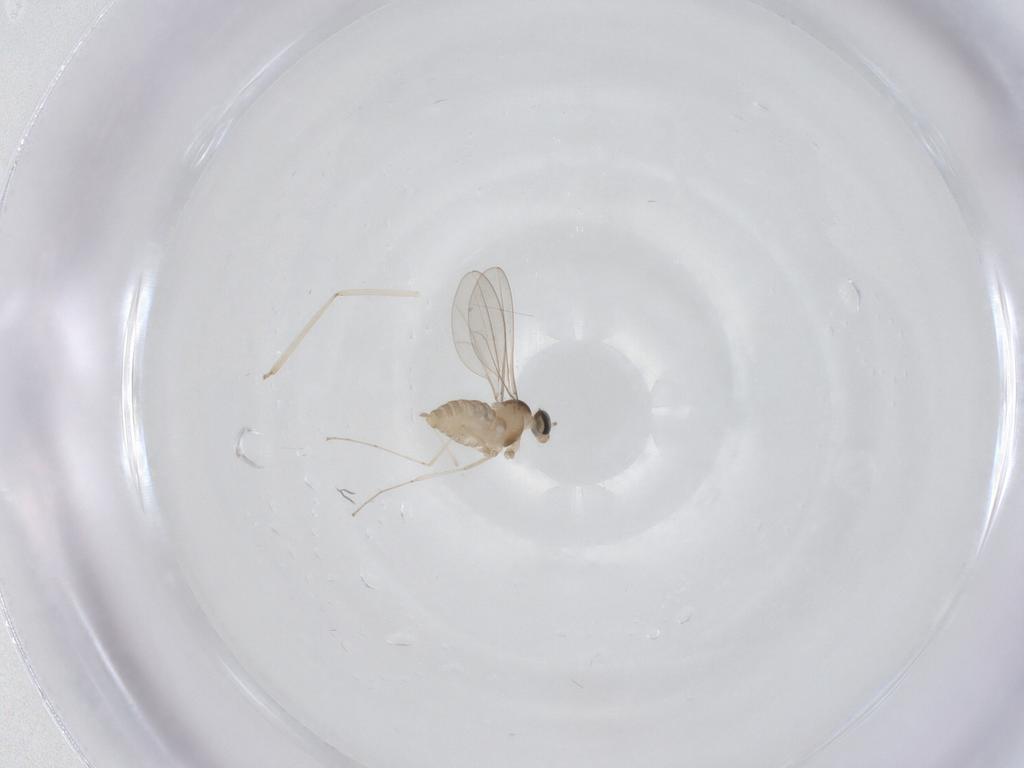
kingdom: Animalia
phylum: Arthropoda
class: Insecta
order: Diptera
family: Cecidomyiidae
